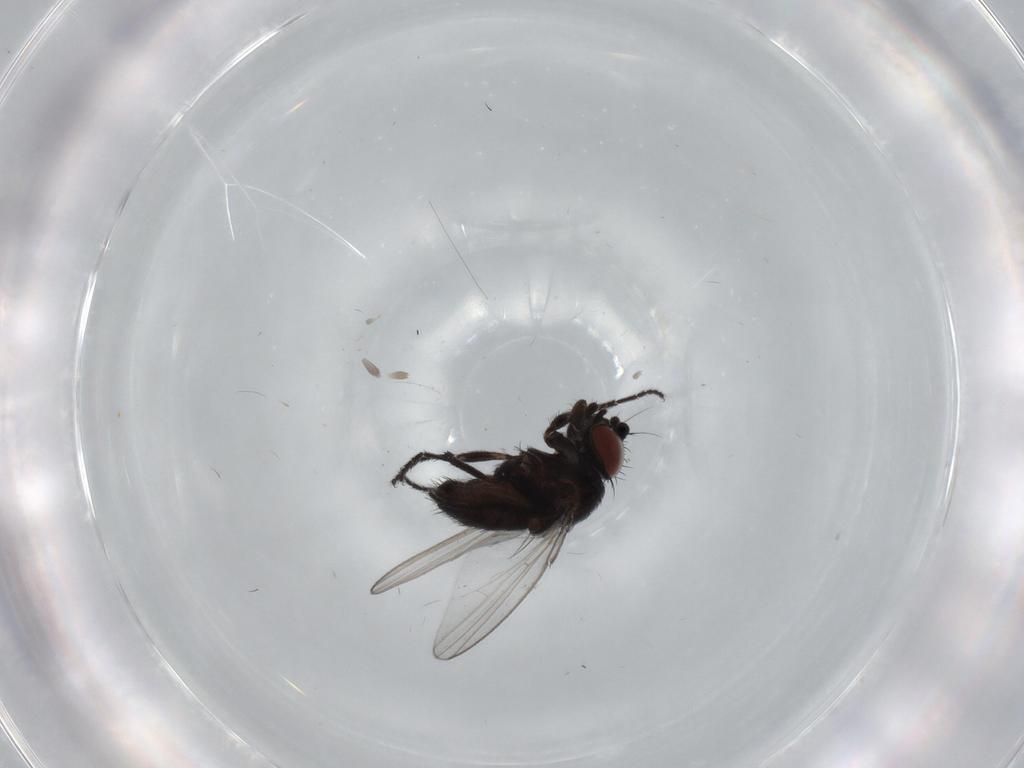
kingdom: Animalia
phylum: Arthropoda
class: Insecta
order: Diptera
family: Milichiidae
